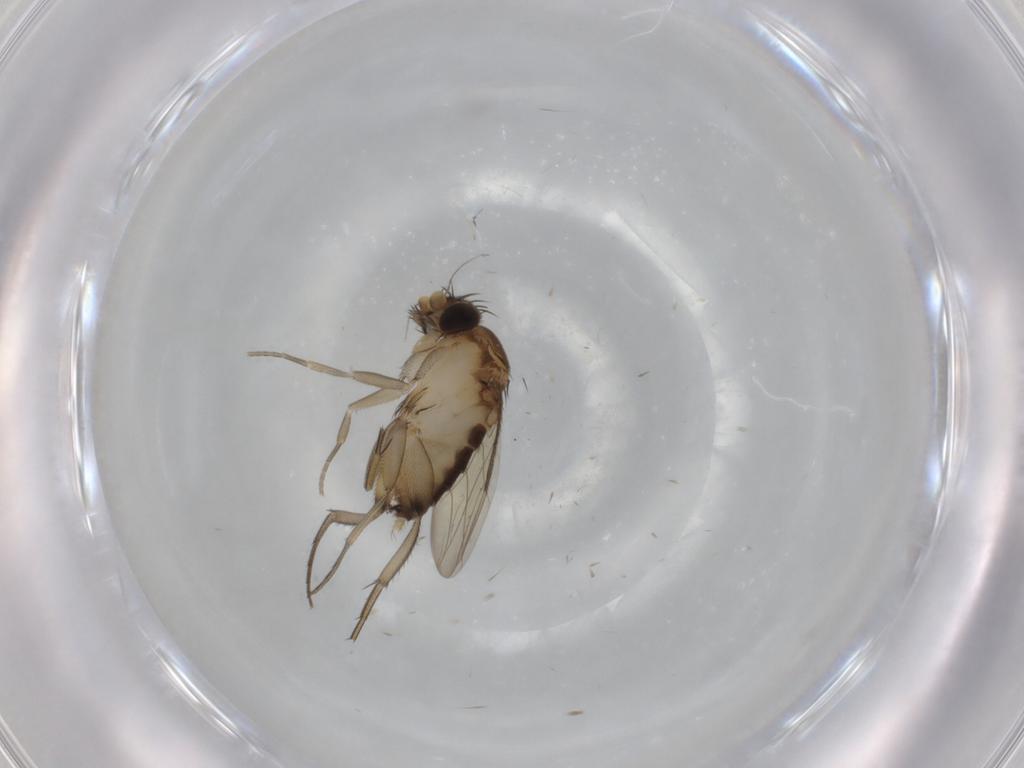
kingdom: Animalia
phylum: Arthropoda
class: Insecta
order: Diptera
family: Phoridae
